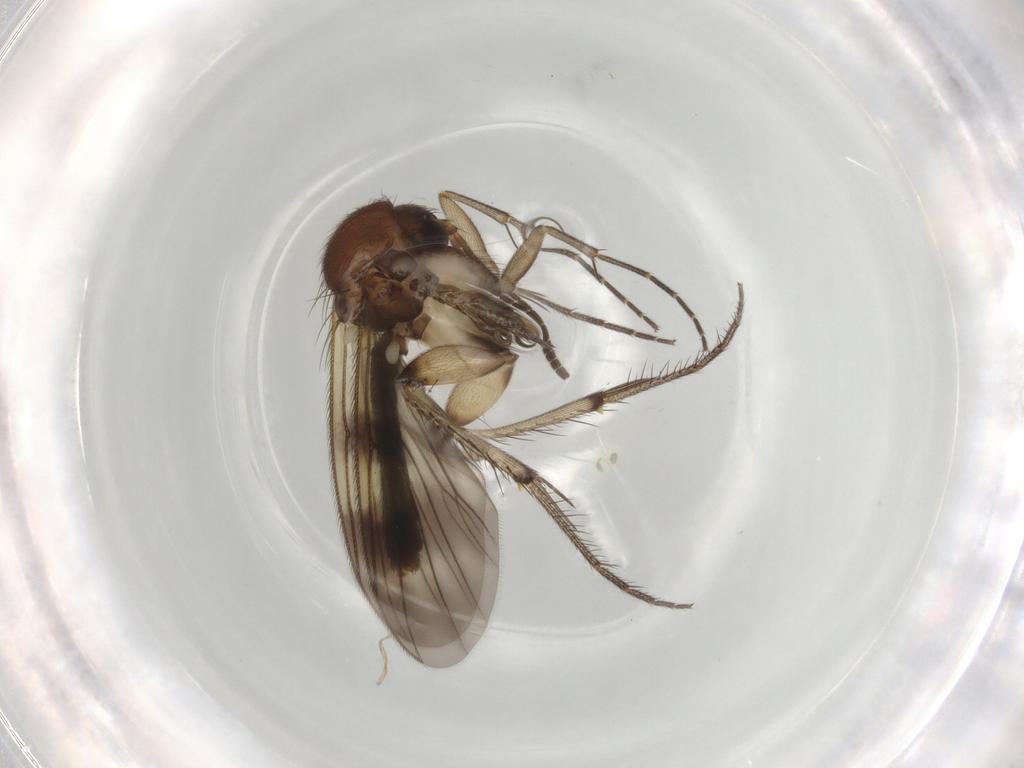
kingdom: Animalia
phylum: Arthropoda
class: Insecta
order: Diptera
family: Mycetophilidae
